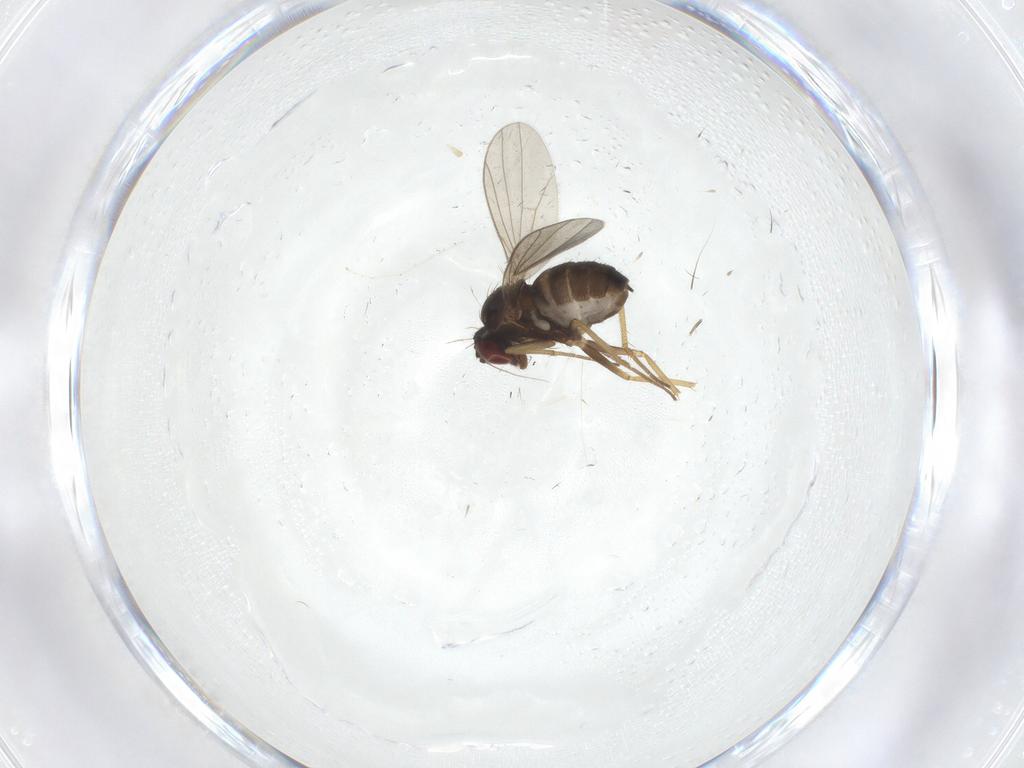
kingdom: Animalia
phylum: Arthropoda
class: Insecta
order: Diptera
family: Dolichopodidae
